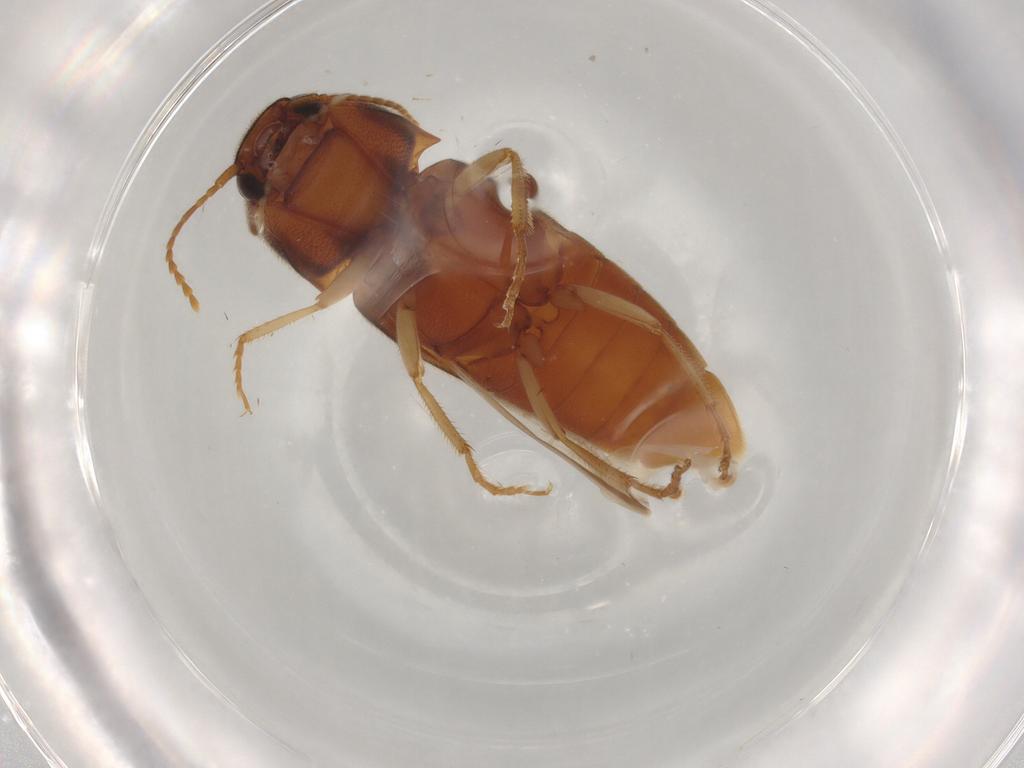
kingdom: Animalia
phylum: Arthropoda
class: Insecta
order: Coleoptera
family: Elateridae
